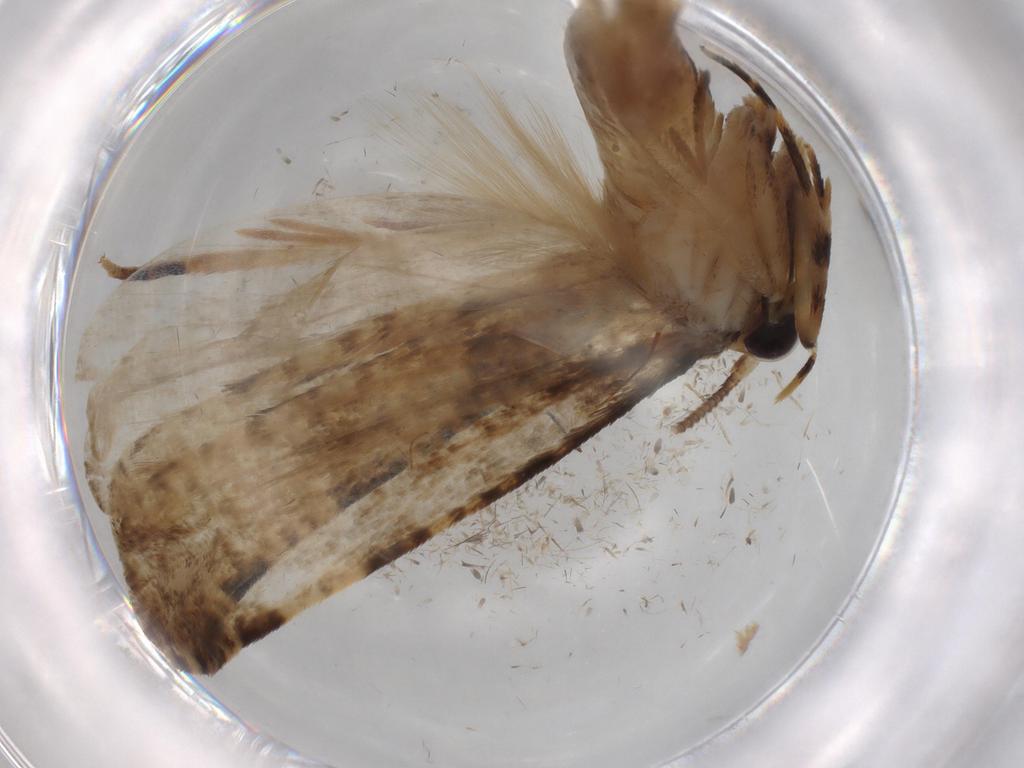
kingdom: Animalia
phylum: Arthropoda
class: Insecta
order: Lepidoptera
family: Tineidae
